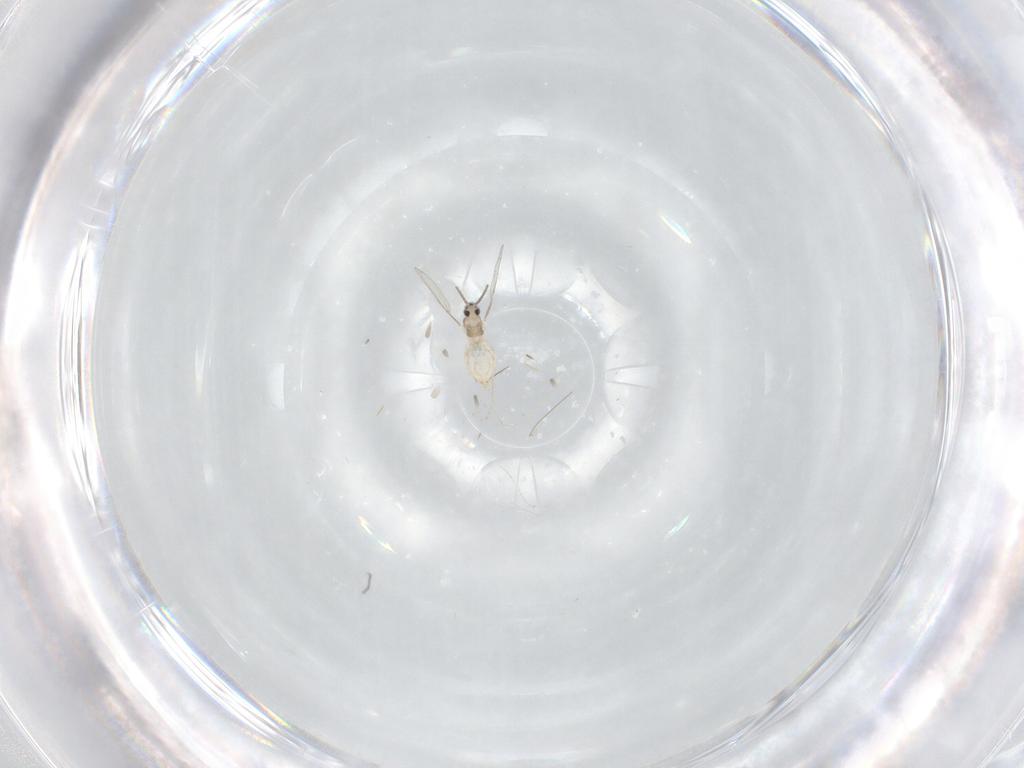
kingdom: Animalia
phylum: Arthropoda
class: Insecta
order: Diptera
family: Cecidomyiidae
